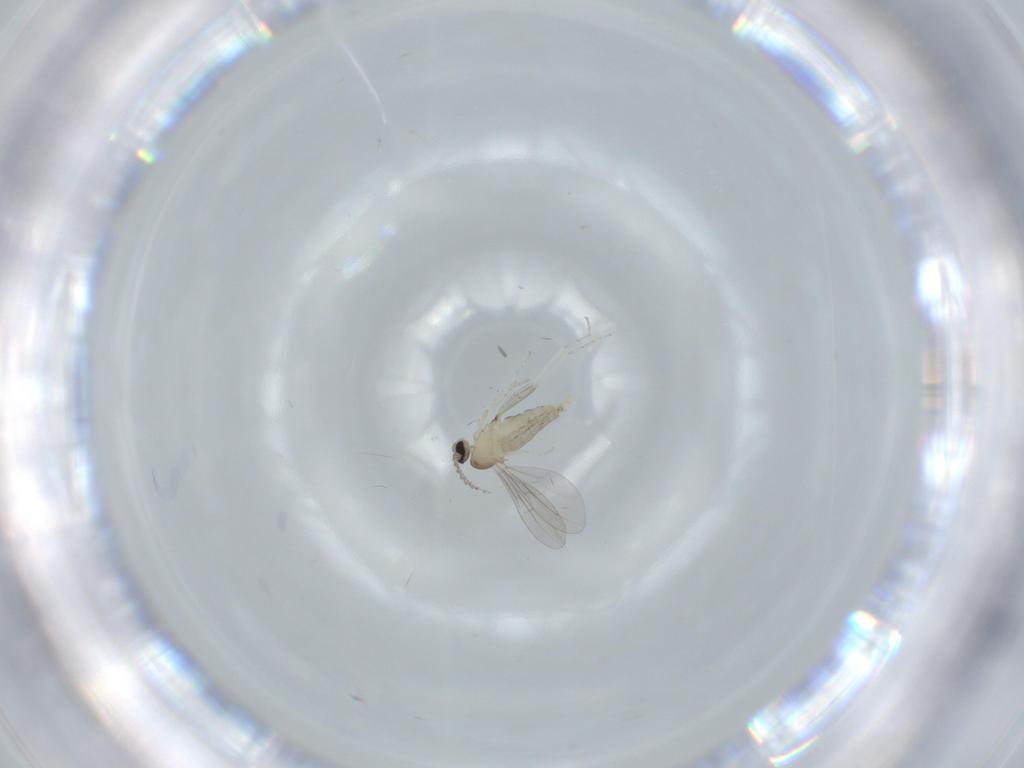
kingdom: Animalia
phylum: Arthropoda
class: Insecta
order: Diptera
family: Cecidomyiidae
